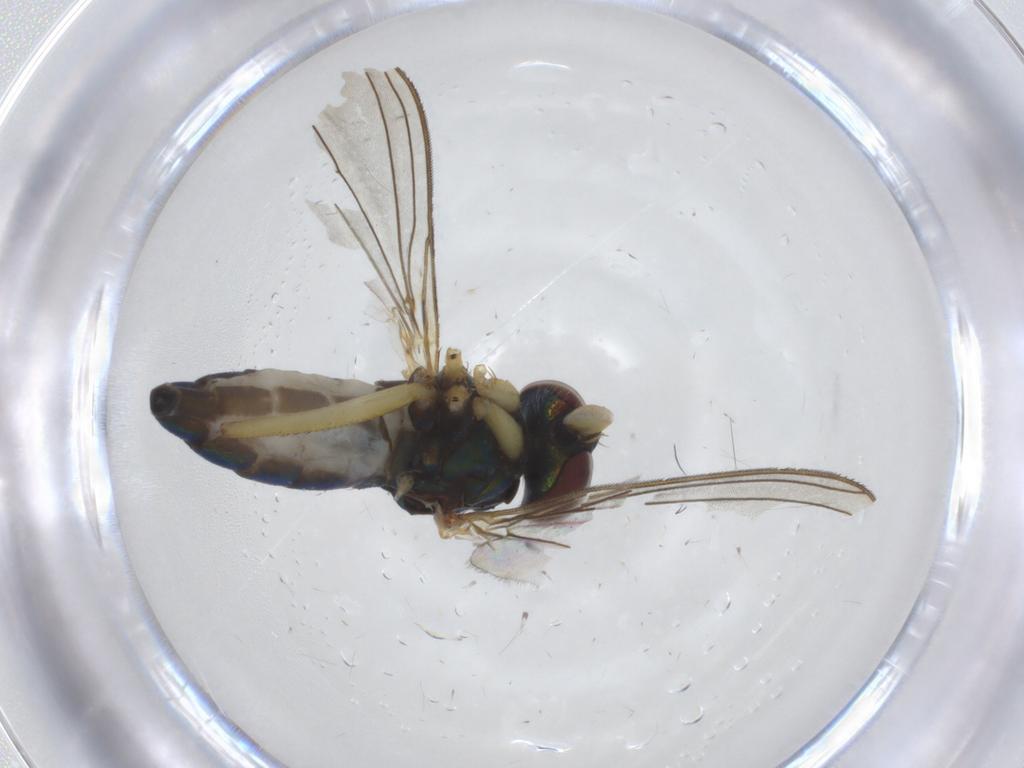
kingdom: Animalia
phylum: Arthropoda
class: Insecta
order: Diptera
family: Dolichopodidae
